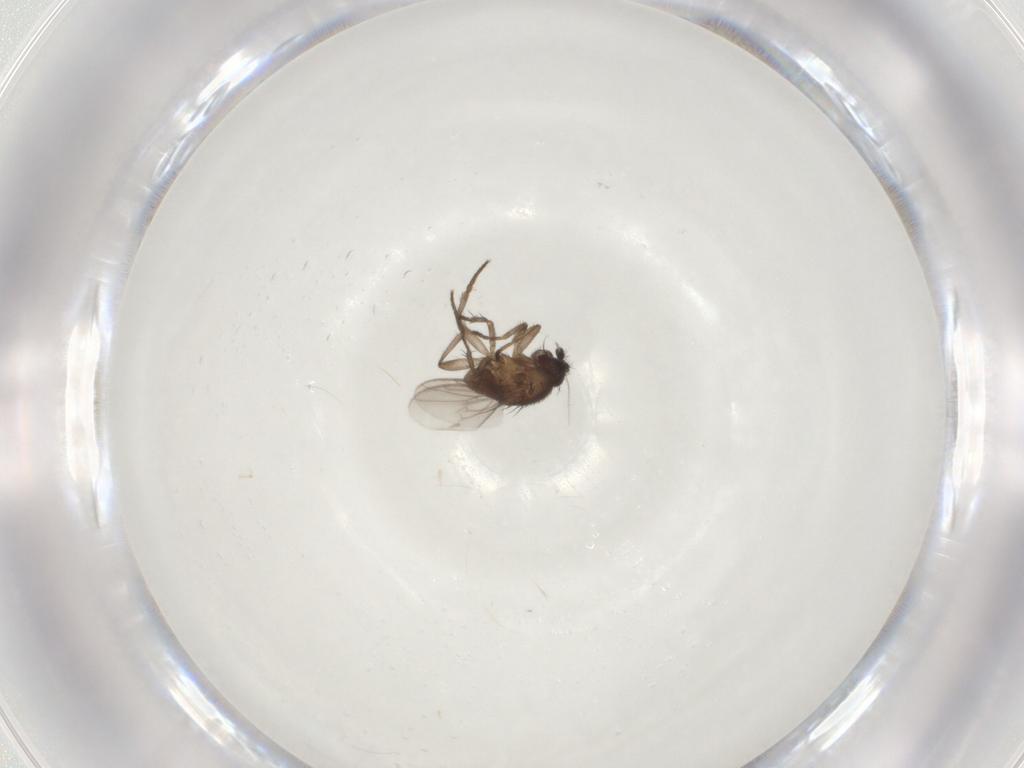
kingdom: Animalia
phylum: Arthropoda
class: Insecta
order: Diptera
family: Sphaeroceridae
